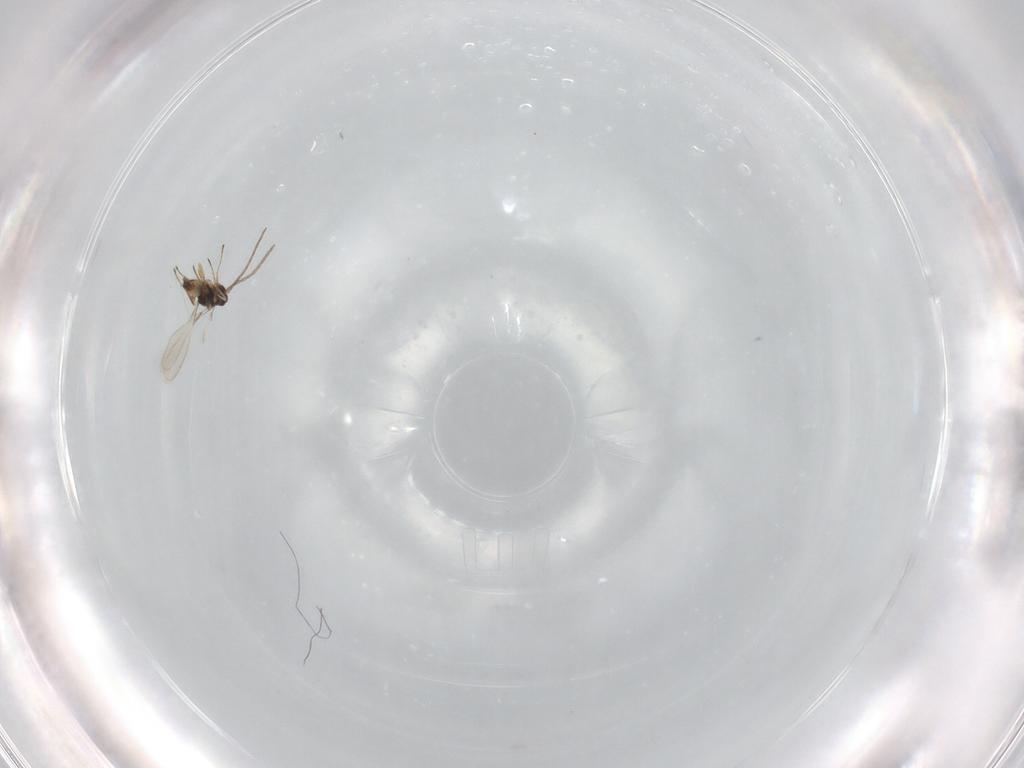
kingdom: Animalia
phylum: Arthropoda
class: Insecta
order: Hymenoptera
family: Mymaridae
